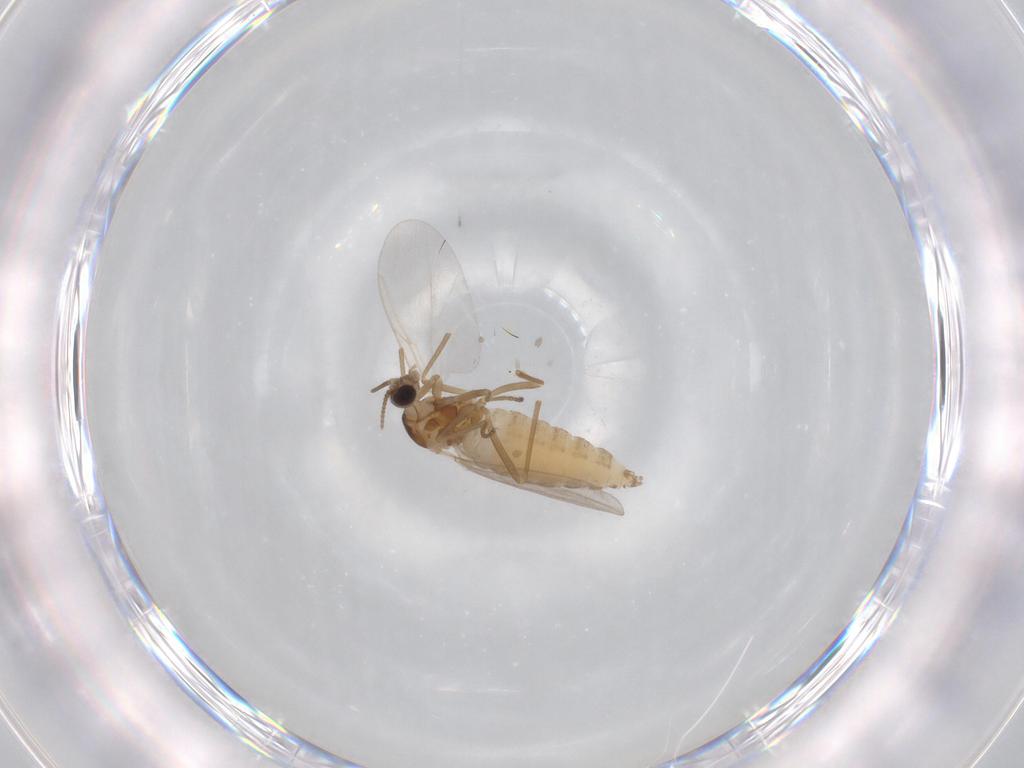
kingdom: Animalia
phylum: Arthropoda
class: Insecta
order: Diptera
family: Cecidomyiidae
